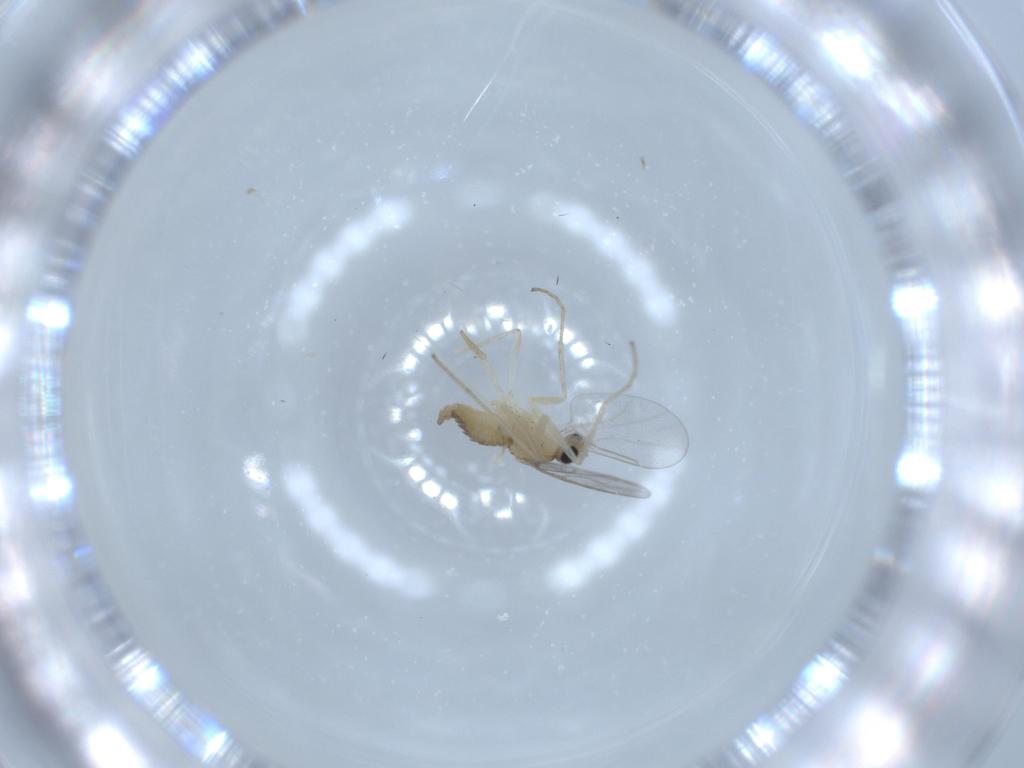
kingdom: Animalia
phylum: Arthropoda
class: Insecta
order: Diptera
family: Cecidomyiidae
